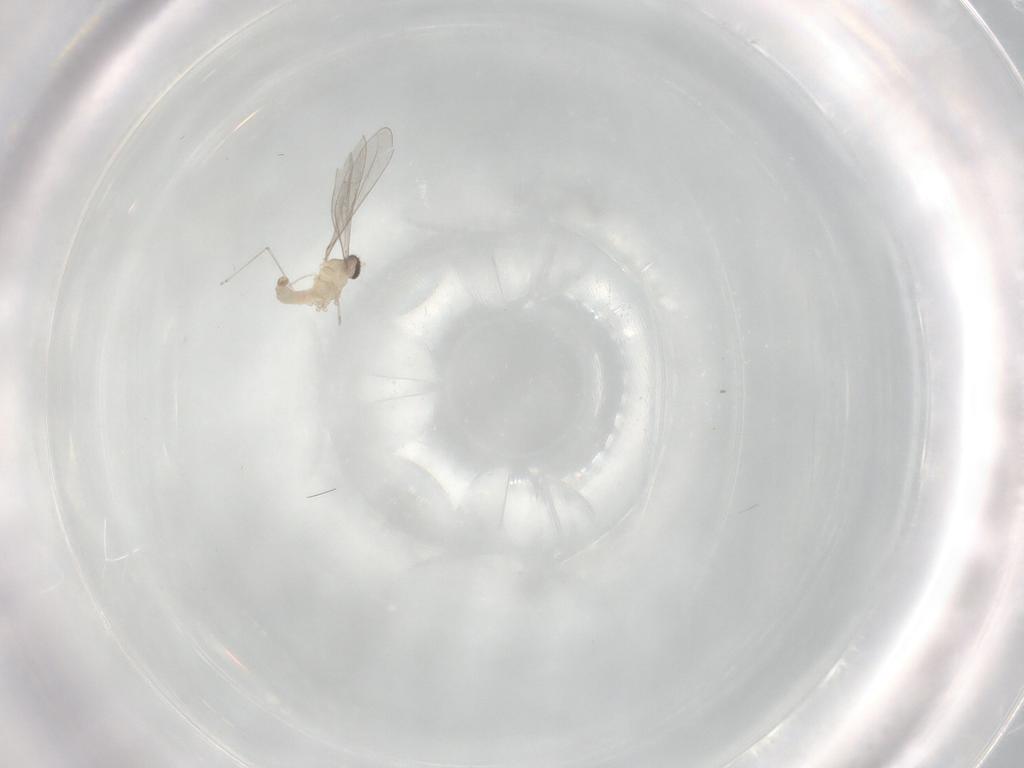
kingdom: Animalia
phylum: Arthropoda
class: Insecta
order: Diptera
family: Cecidomyiidae
